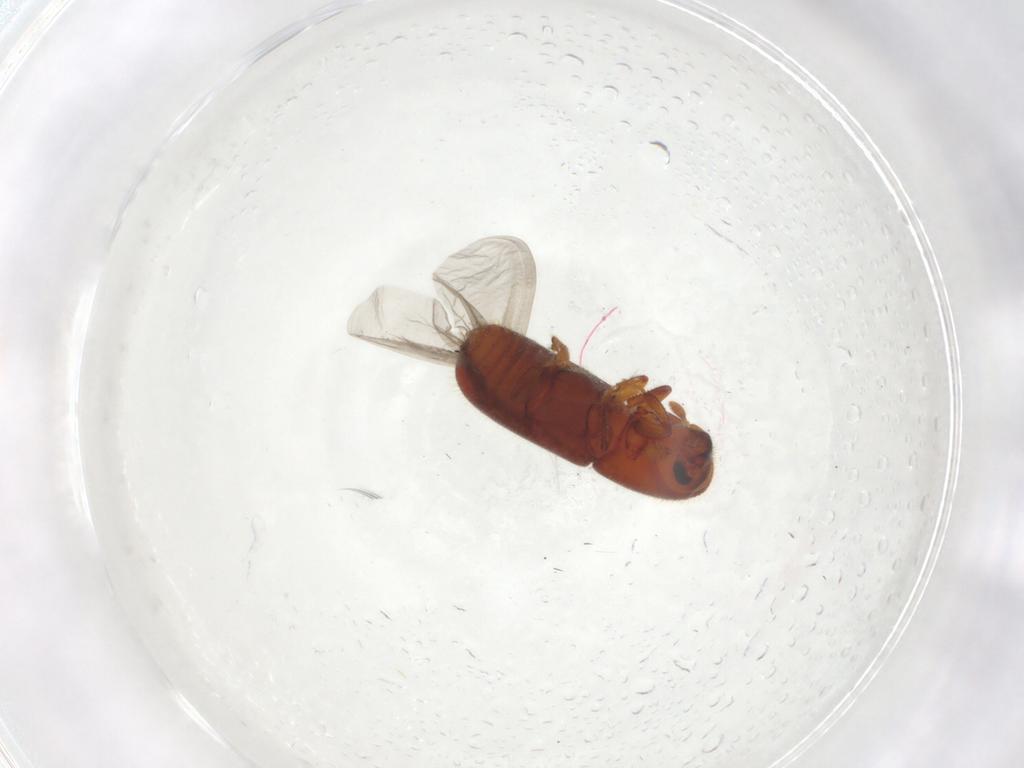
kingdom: Animalia
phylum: Arthropoda
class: Insecta
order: Coleoptera
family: Curculionidae
